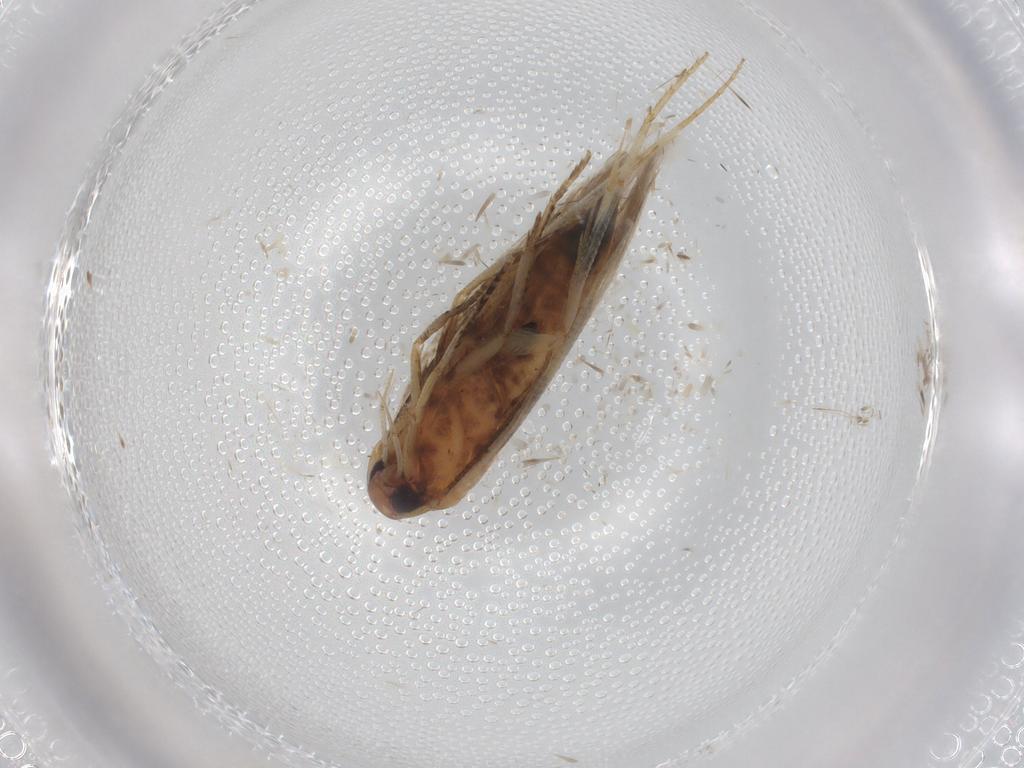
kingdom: Animalia
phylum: Arthropoda
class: Insecta
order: Lepidoptera
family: Cosmopterigidae
